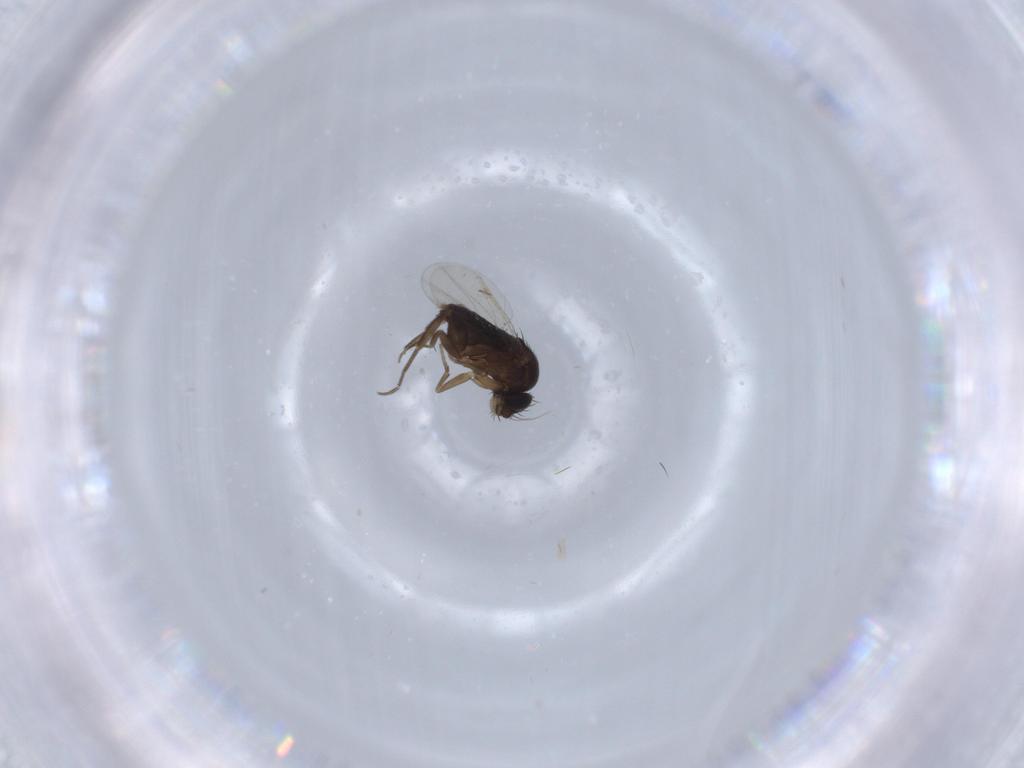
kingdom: Animalia
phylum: Arthropoda
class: Insecta
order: Diptera
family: Phoridae
